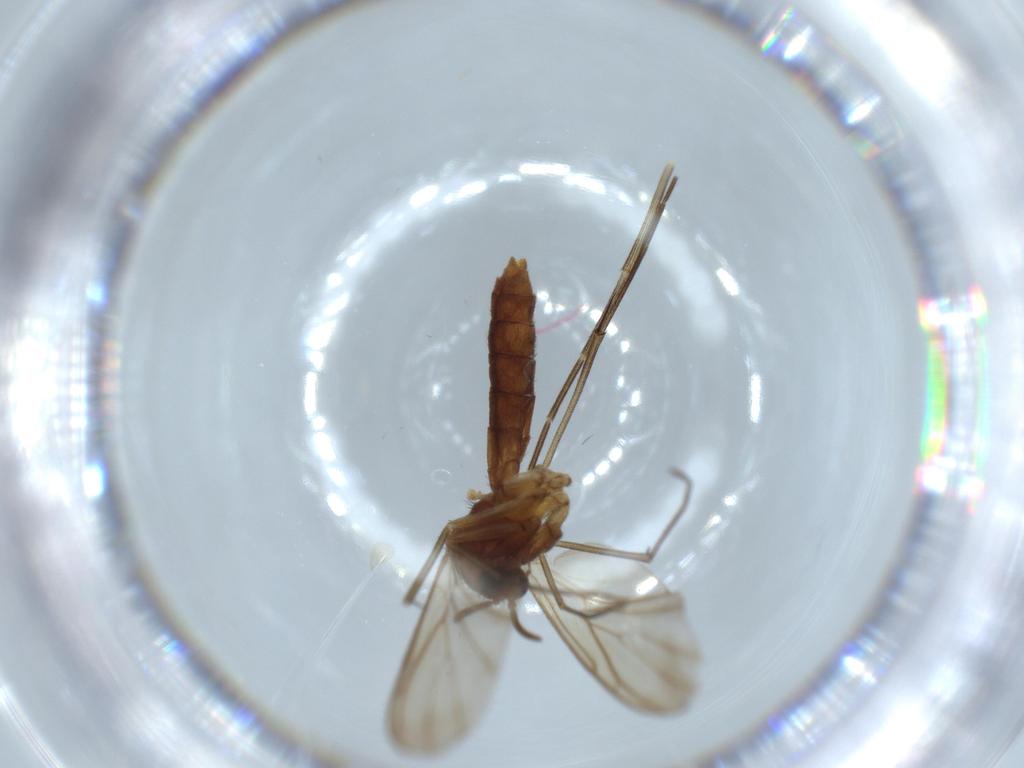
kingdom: Animalia
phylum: Arthropoda
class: Insecta
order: Diptera
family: Keroplatidae
